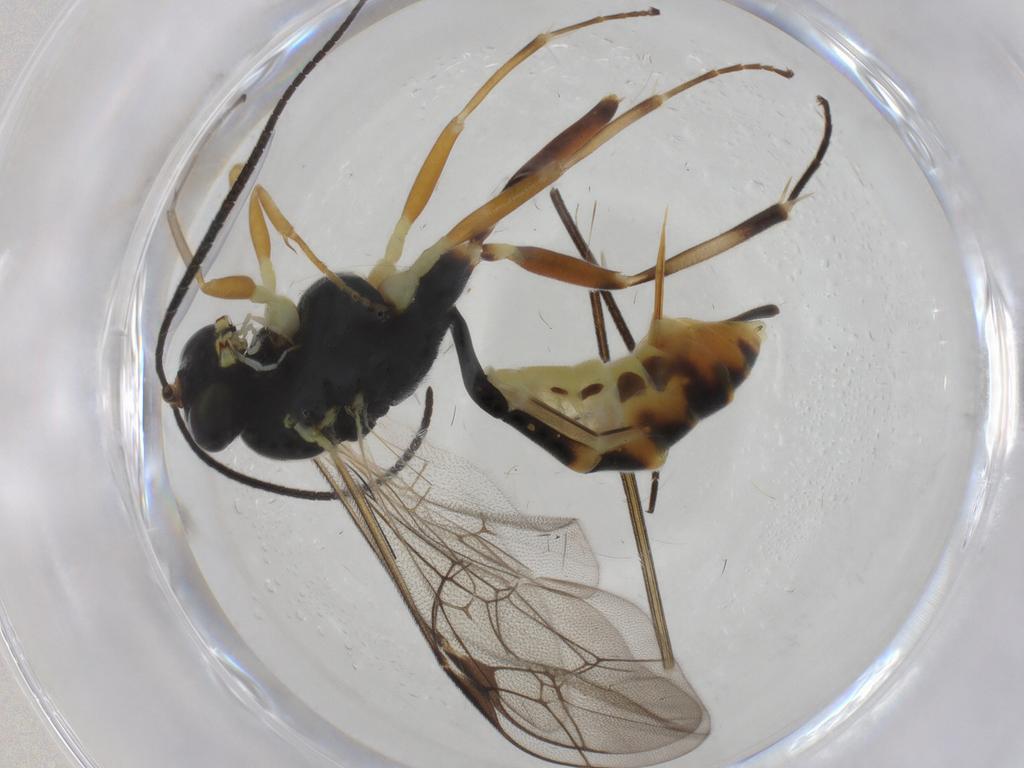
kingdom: Animalia
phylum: Arthropoda
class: Insecta
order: Hymenoptera
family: Ichneumonidae
